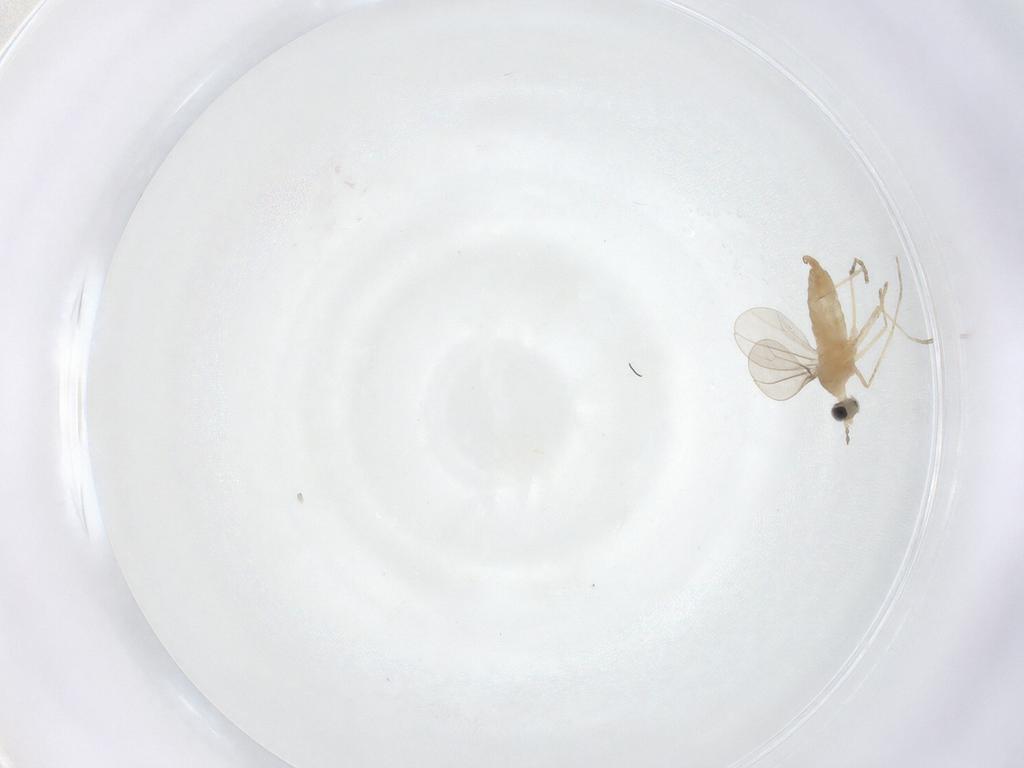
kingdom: Animalia
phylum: Arthropoda
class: Insecta
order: Diptera
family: Cecidomyiidae
